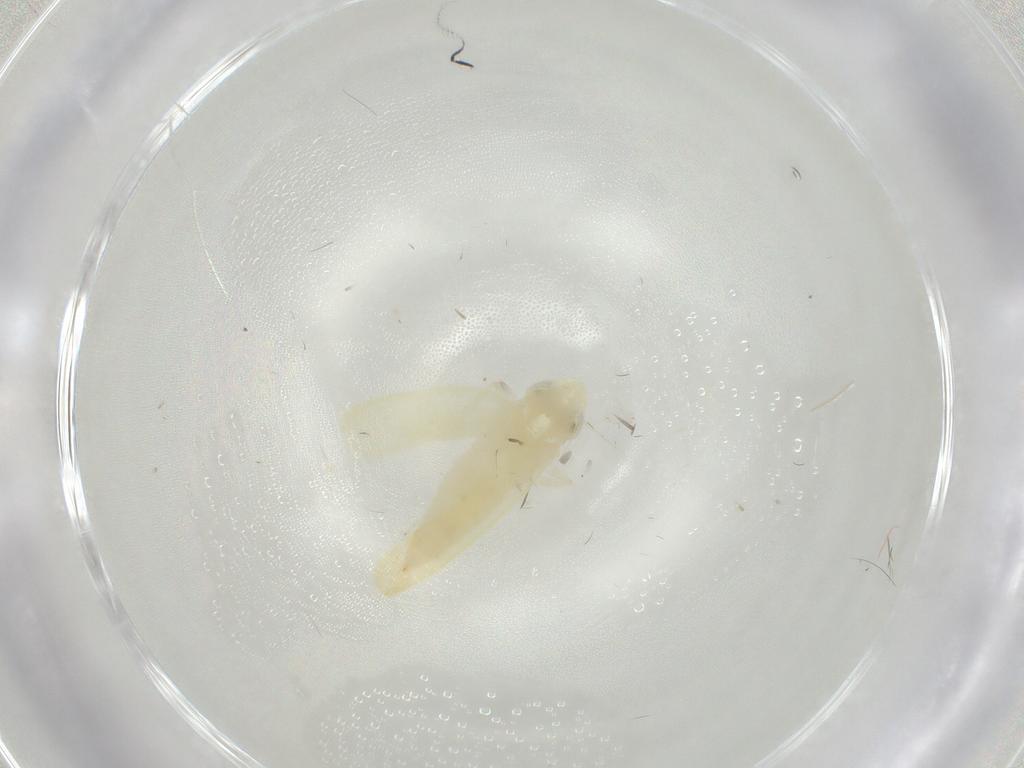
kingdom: Animalia
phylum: Arthropoda
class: Insecta
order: Hemiptera
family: Cicadellidae
